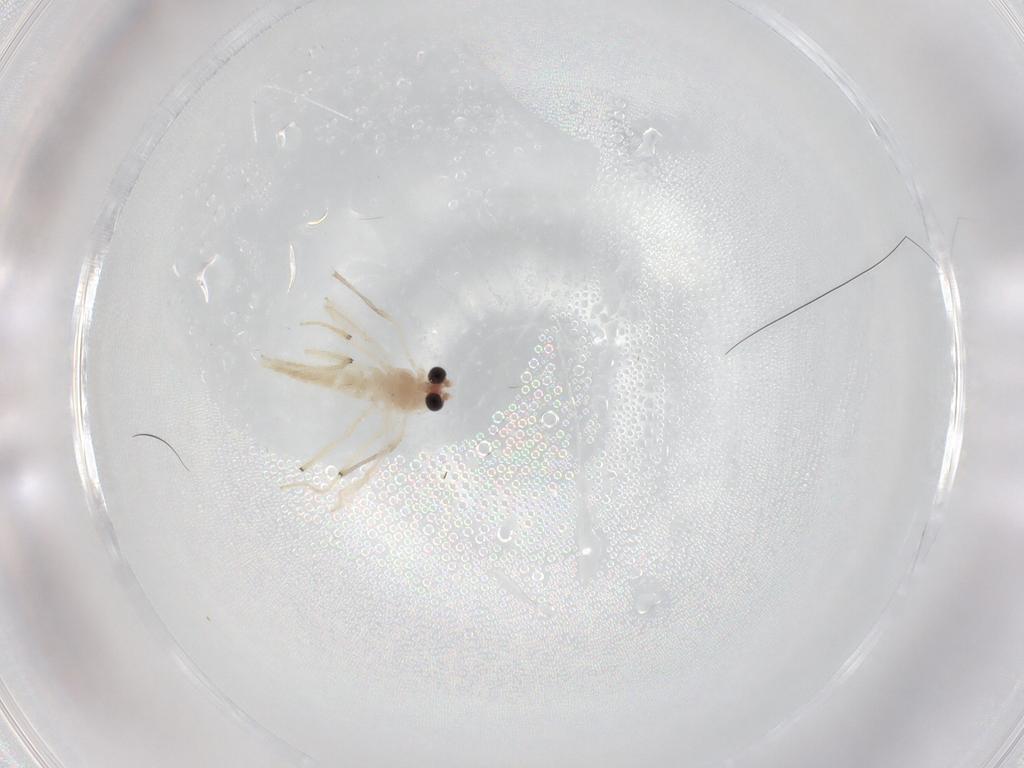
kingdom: Animalia
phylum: Arthropoda
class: Insecta
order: Diptera
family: Chironomidae
